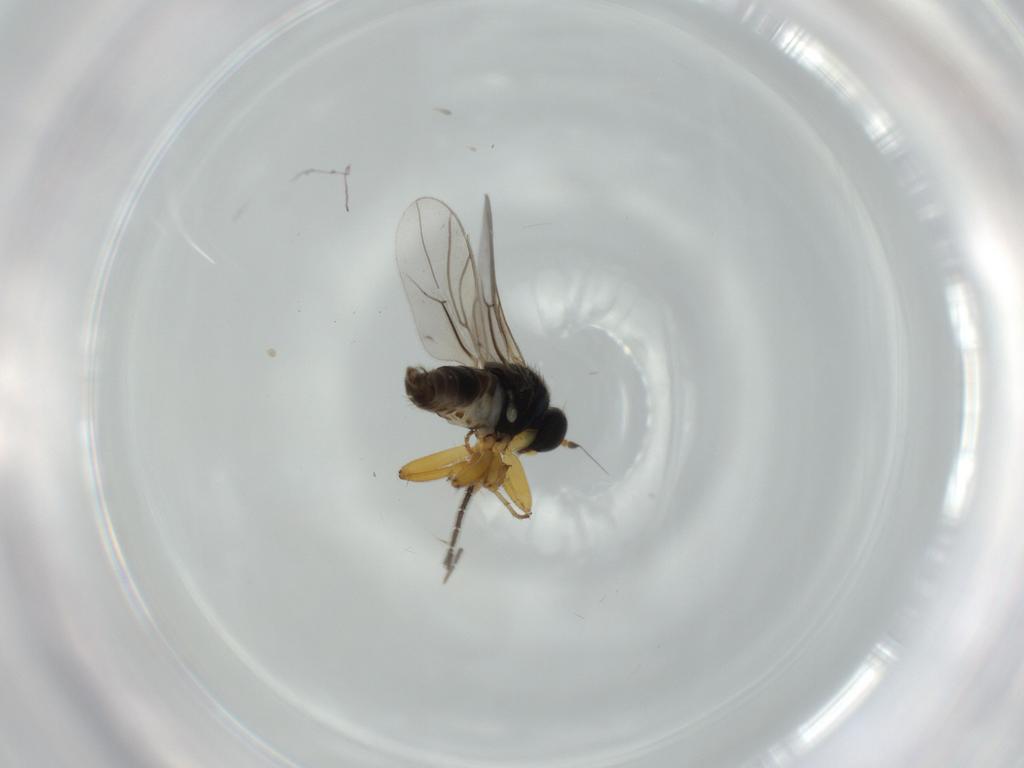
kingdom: Animalia
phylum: Arthropoda
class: Insecta
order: Diptera
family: Hybotidae
